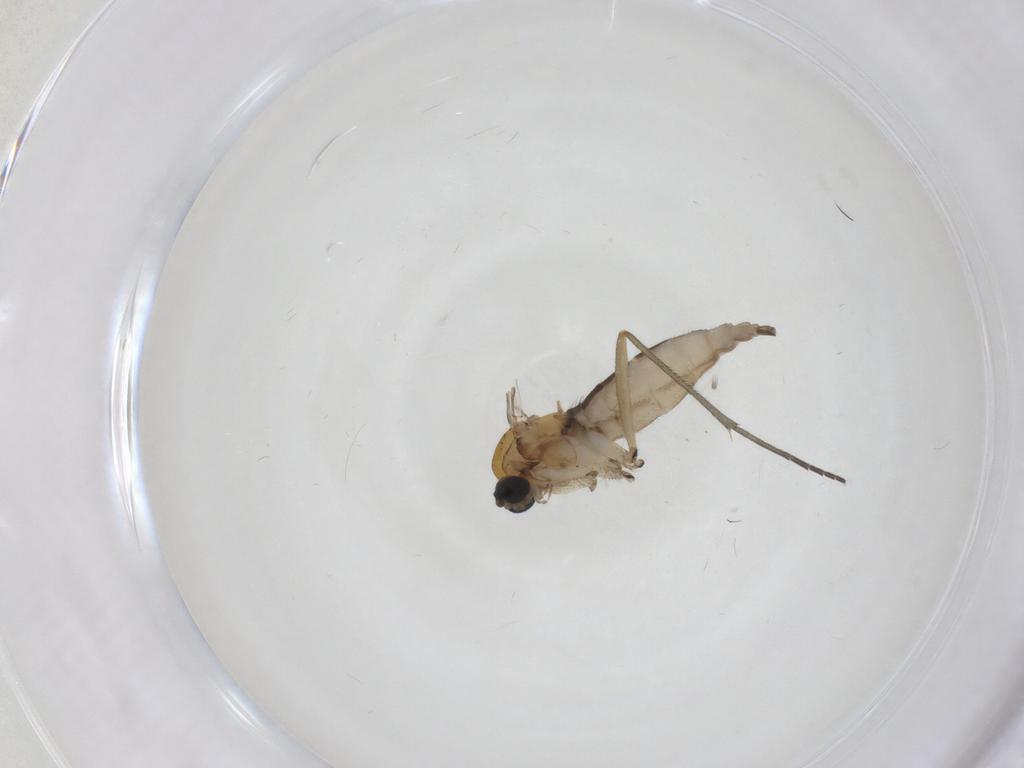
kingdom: Animalia
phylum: Arthropoda
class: Insecta
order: Diptera
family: Sciaridae
